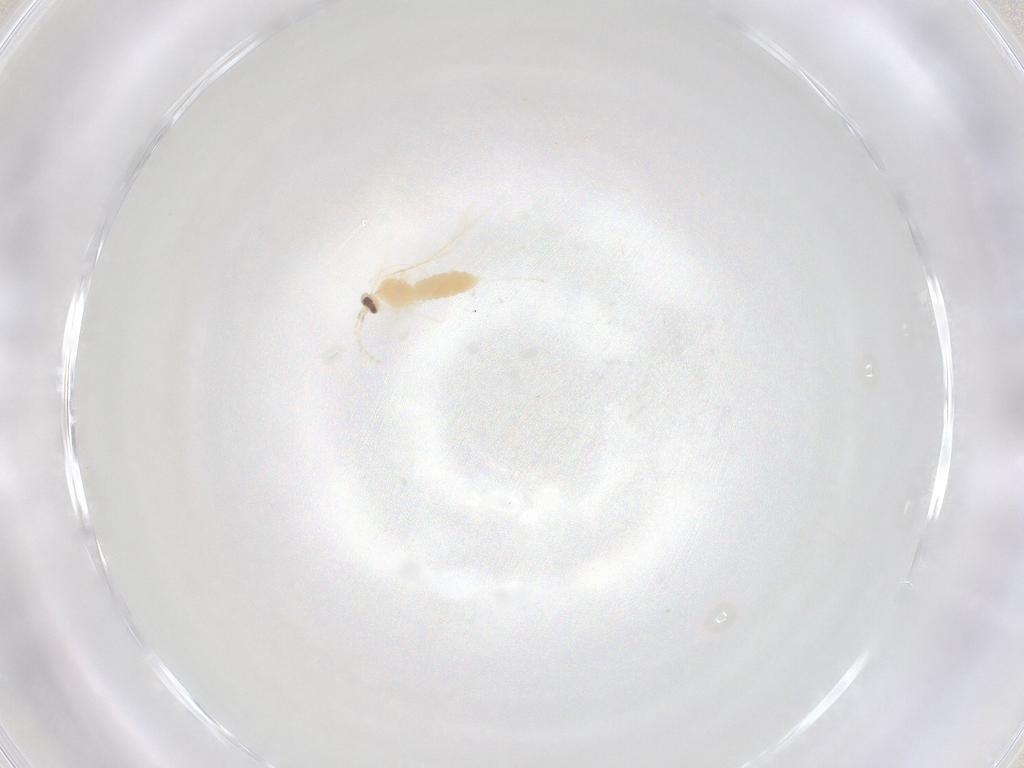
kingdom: Animalia
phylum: Arthropoda
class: Insecta
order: Diptera
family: Cecidomyiidae
